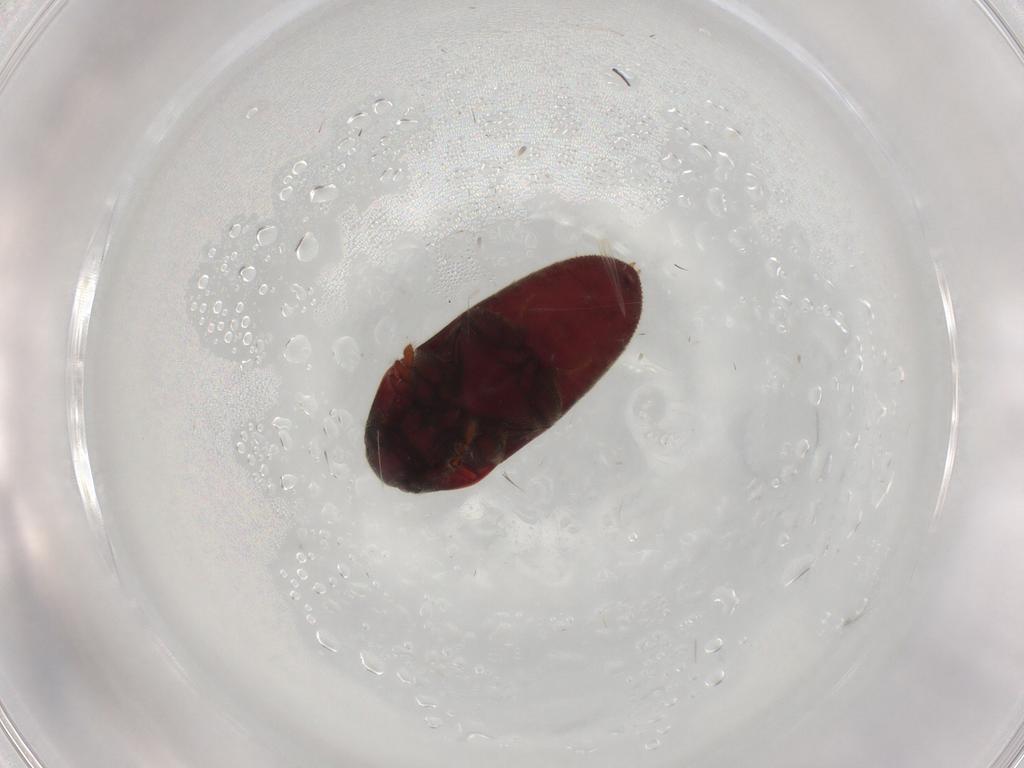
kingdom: Animalia
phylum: Arthropoda
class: Insecta
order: Coleoptera
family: Throscidae
